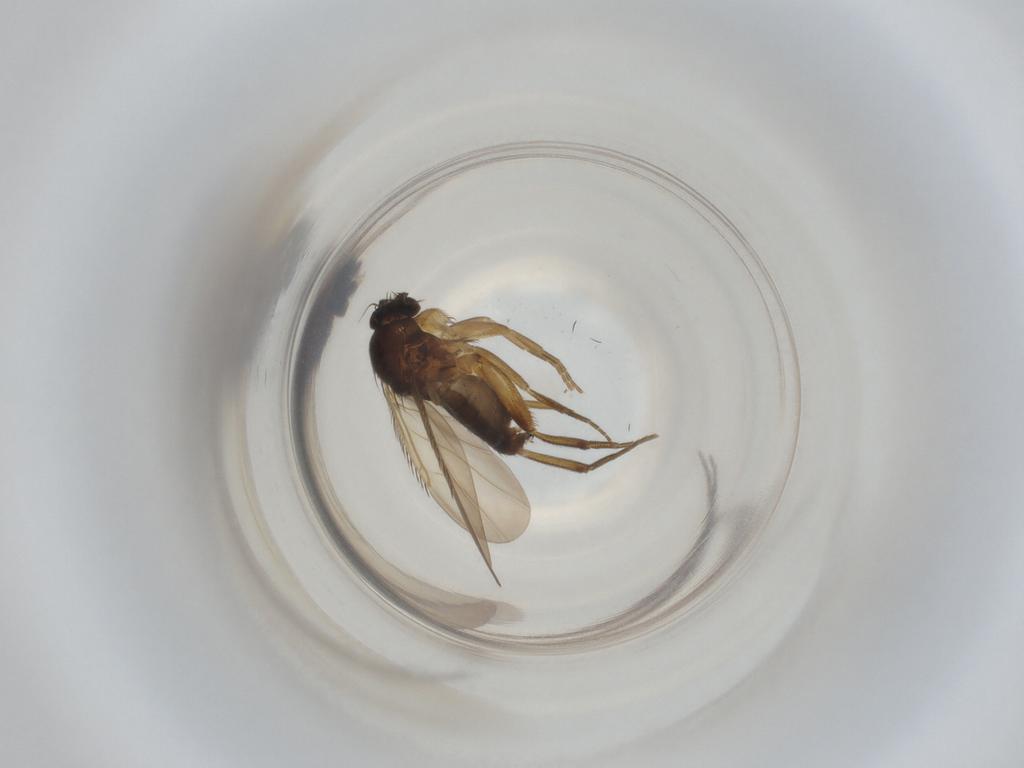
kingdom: Animalia
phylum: Arthropoda
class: Insecta
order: Diptera
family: Phoridae
